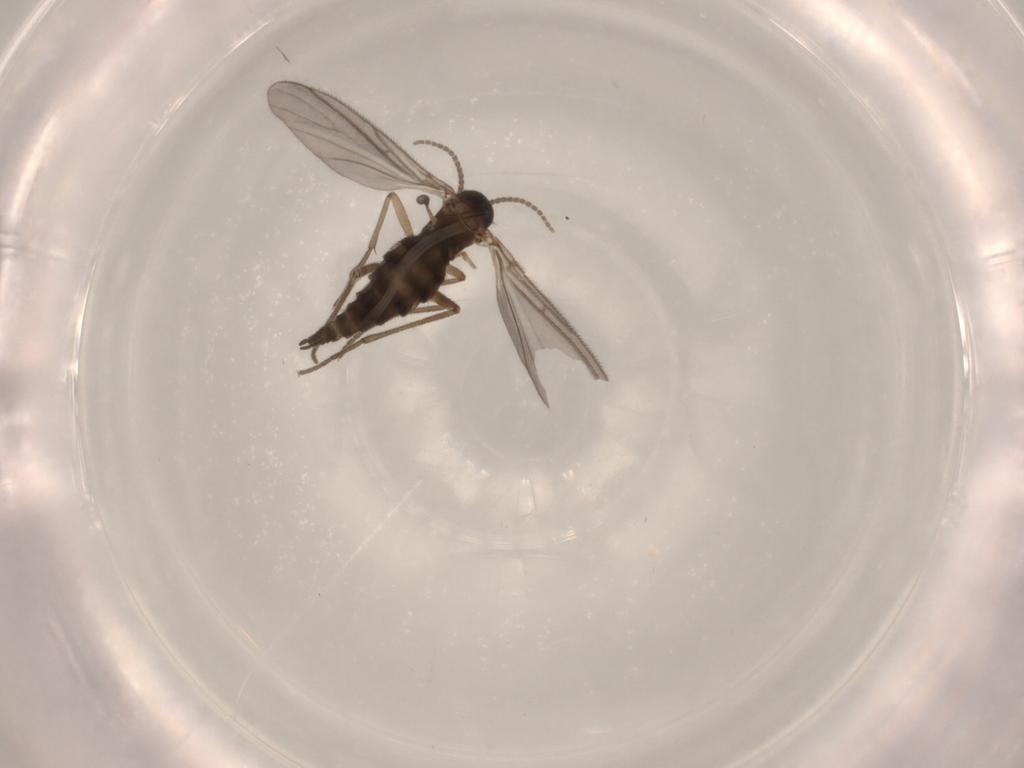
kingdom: Animalia
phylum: Arthropoda
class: Insecta
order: Diptera
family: Sciaridae
